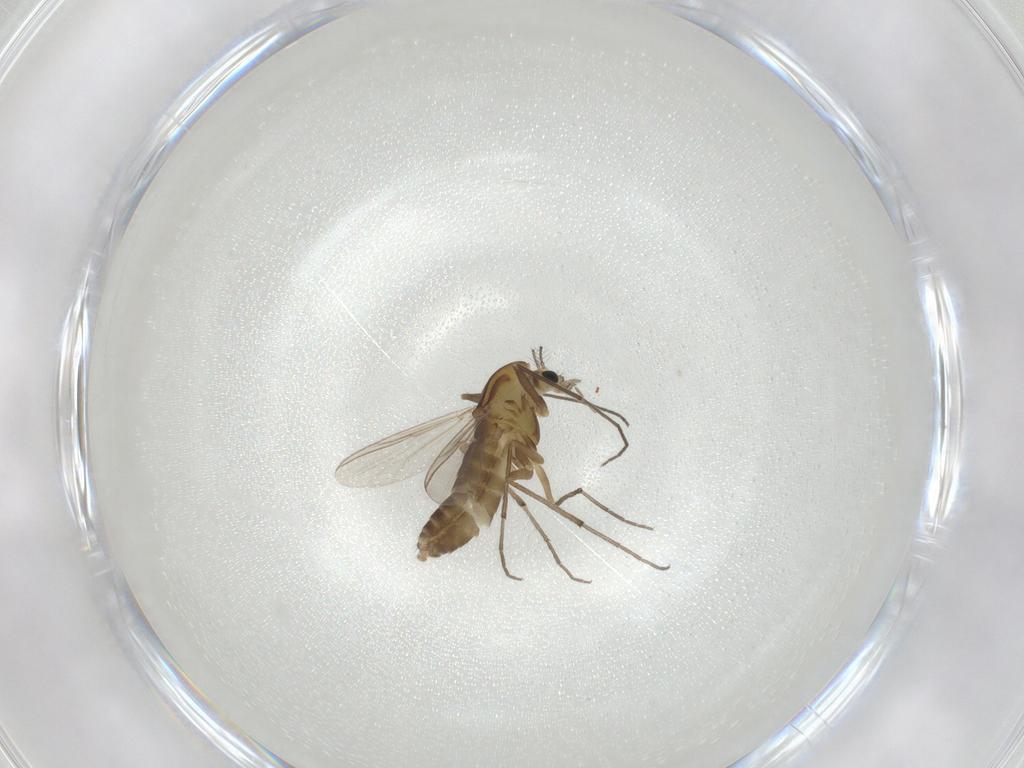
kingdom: Animalia
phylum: Arthropoda
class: Insecta
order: Diptera
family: Chironomidae
